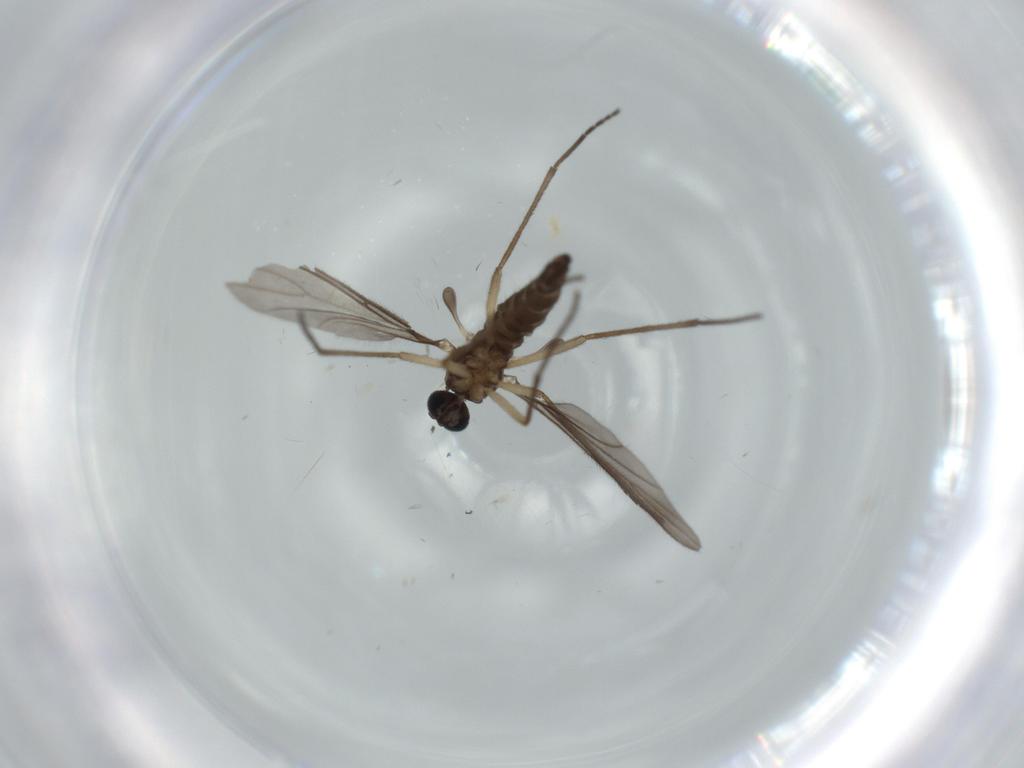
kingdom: Animalia
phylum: Arthropoda
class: Insecta
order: Diptera
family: Sciaridae
